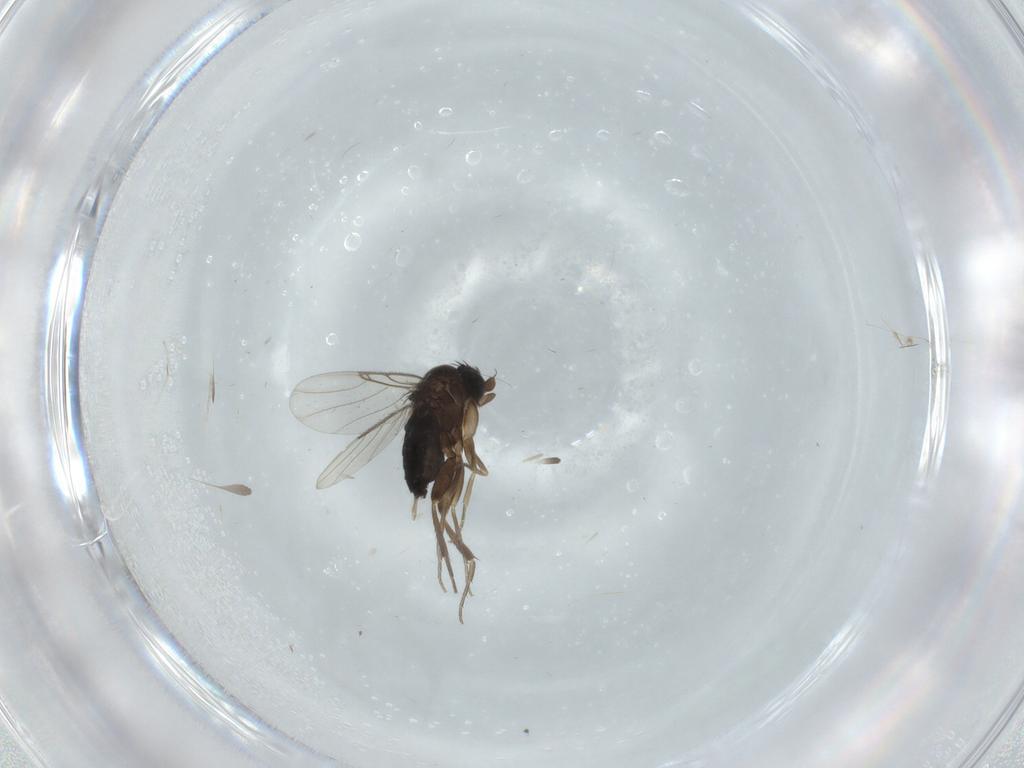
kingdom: Animalia
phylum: Arthropoda
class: Insecta
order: Diptera
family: Phoridae
